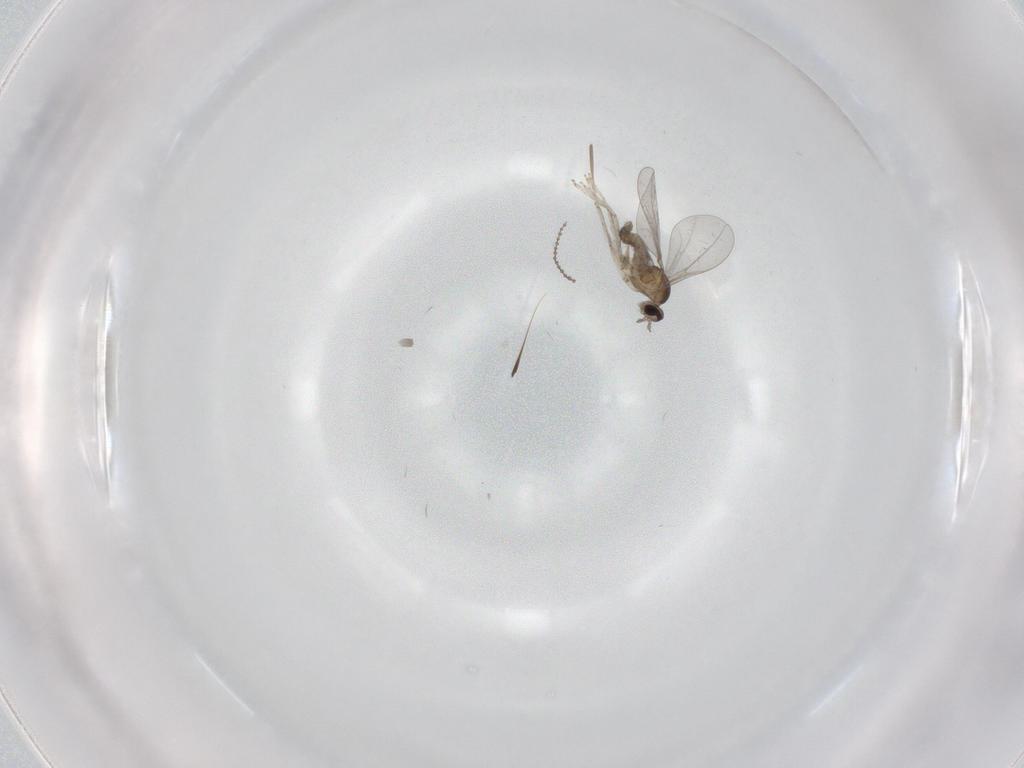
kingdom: Animalia
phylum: Arthropoda
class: Insecta
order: Diptera
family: Cecidomyiidae
